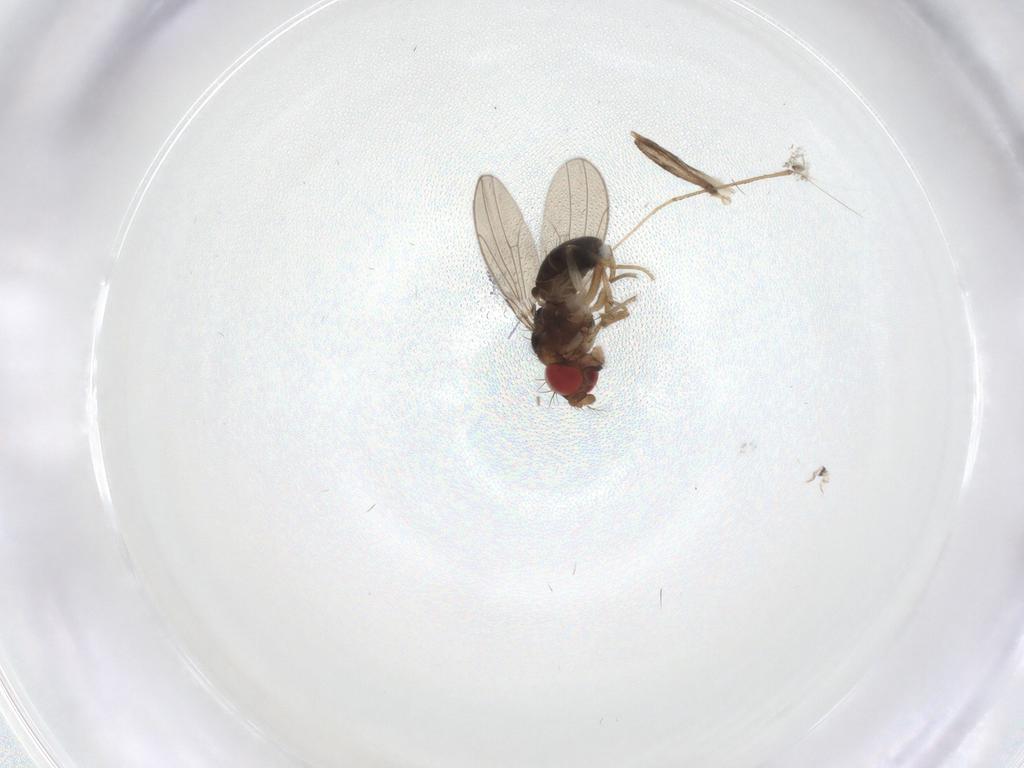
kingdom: Animalia
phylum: Arthropoda
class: Insecta
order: Diptera
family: Drosophilidae
